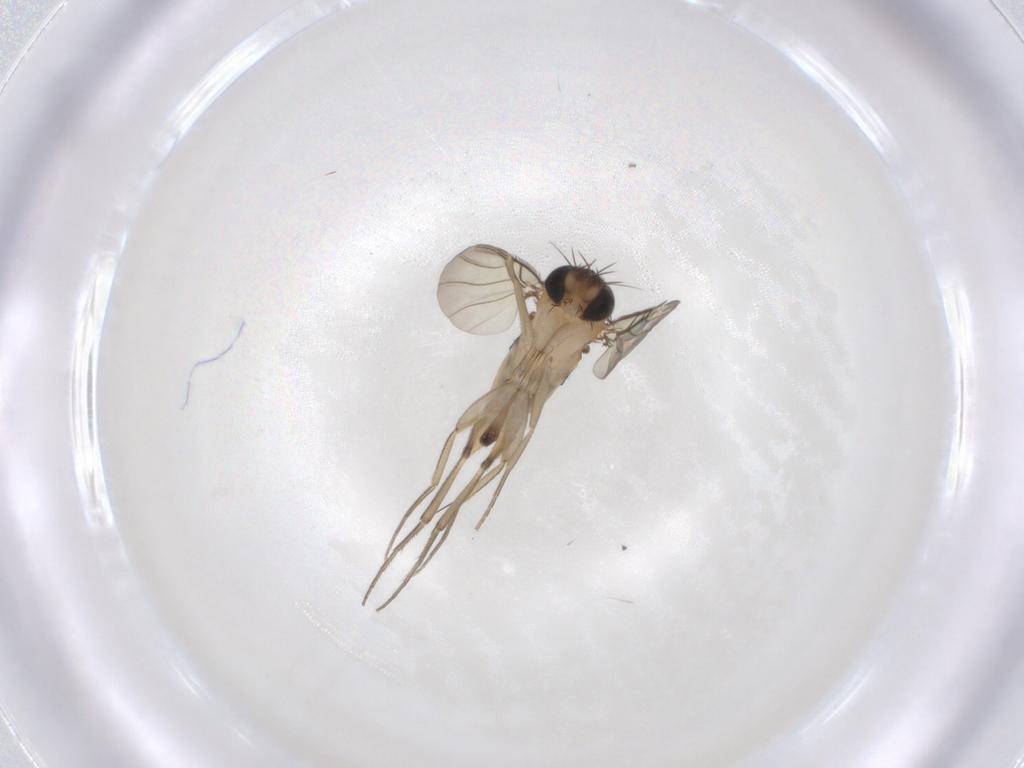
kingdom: Animalia
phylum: Arthropoda
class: Insecta
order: Diptera
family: Phoridae
